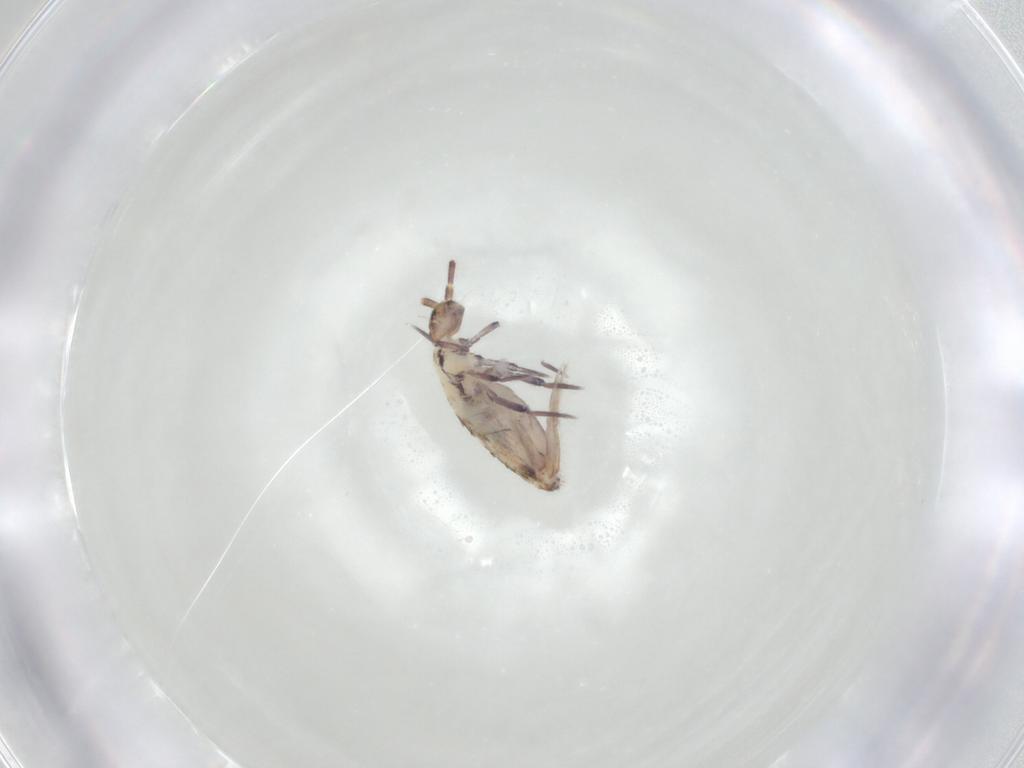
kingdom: Animalia
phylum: Arthropoda
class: Collembola
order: Entomobryomorpha
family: Entomobryidae
